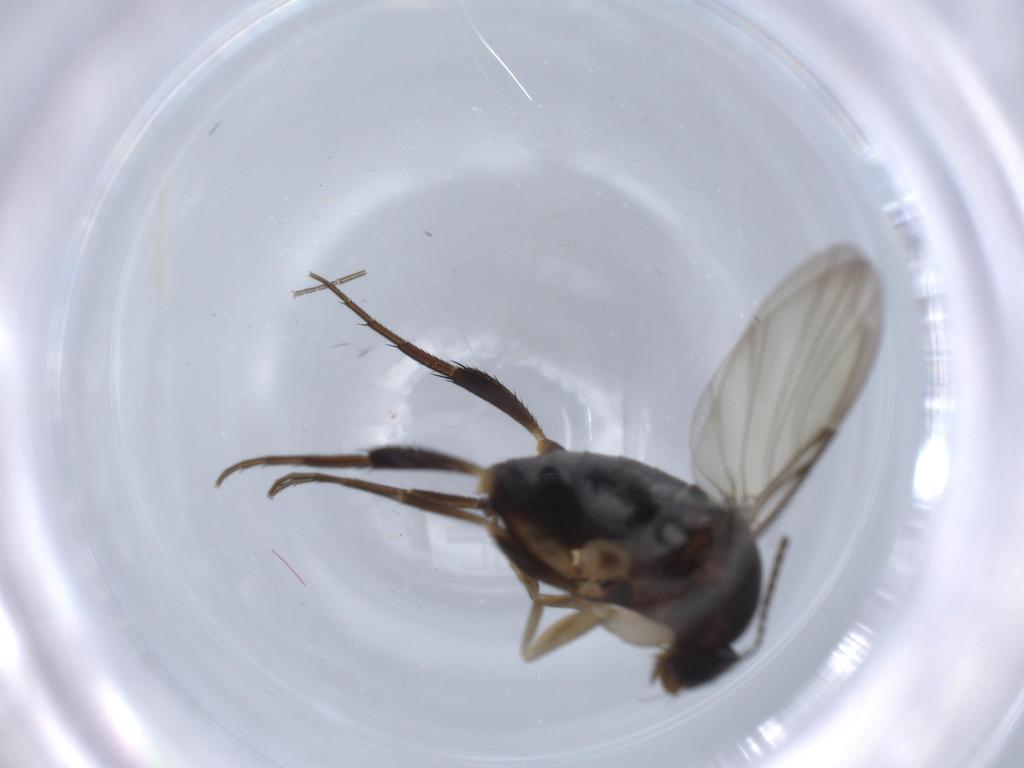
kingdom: Animalia
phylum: Arthropoda
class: Insecta
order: Diptera
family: Phoridae
